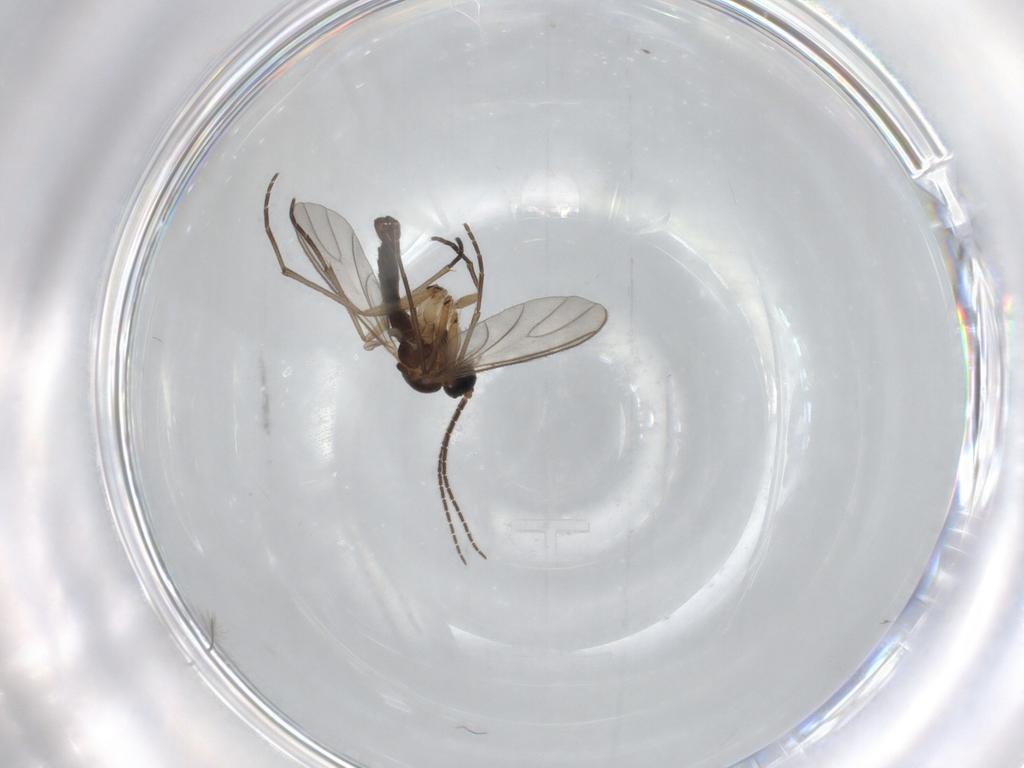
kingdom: Animalia
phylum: Arthropoda
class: Insecta
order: Diptera
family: Sciaridae
